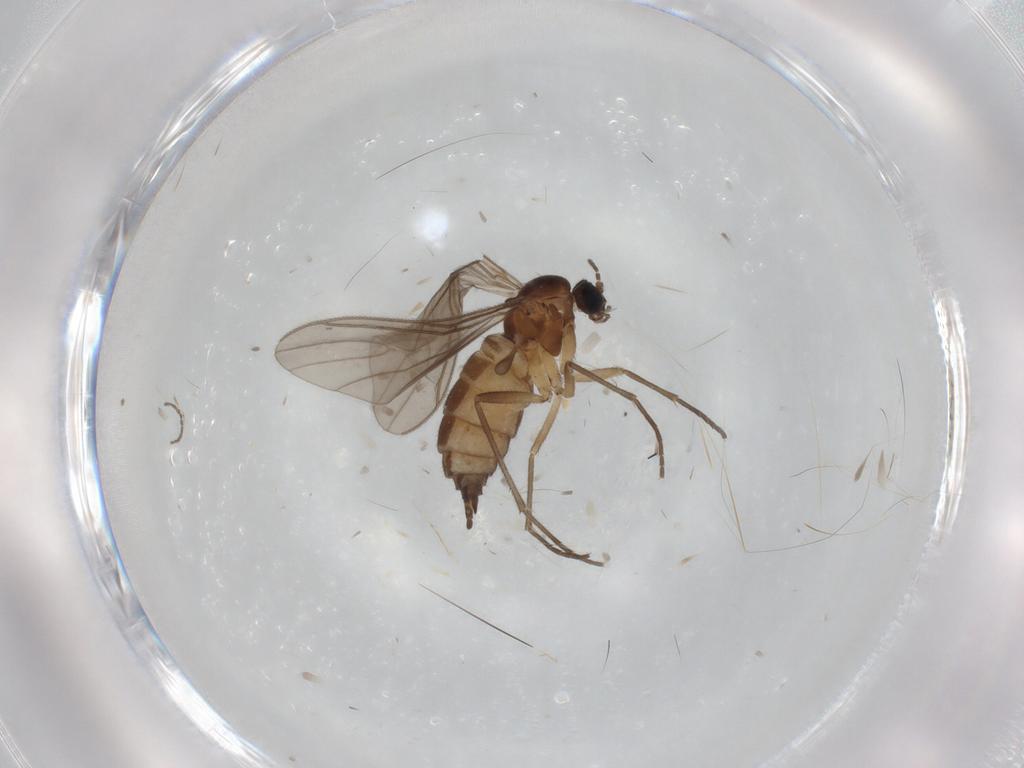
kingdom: Animalia
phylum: Arthropoda
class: Insecta
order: Diptera
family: Sciaridae
